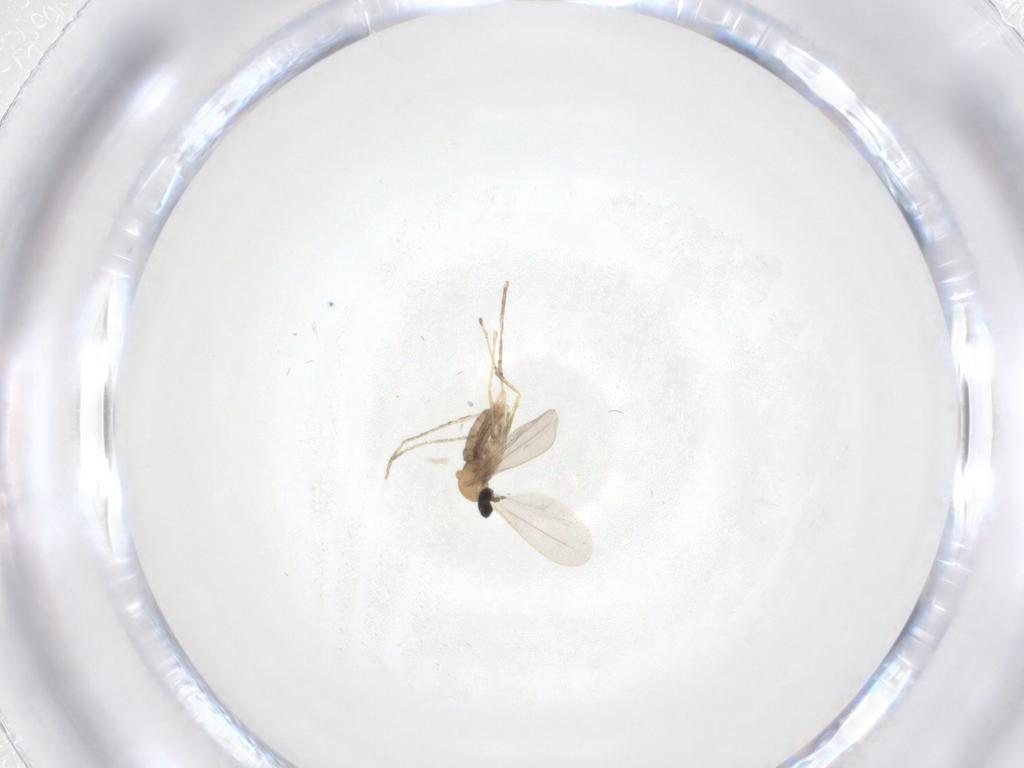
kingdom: Animalia
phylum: Arthropoda
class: Insecta
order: Diptera
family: Cecidomyiidae
